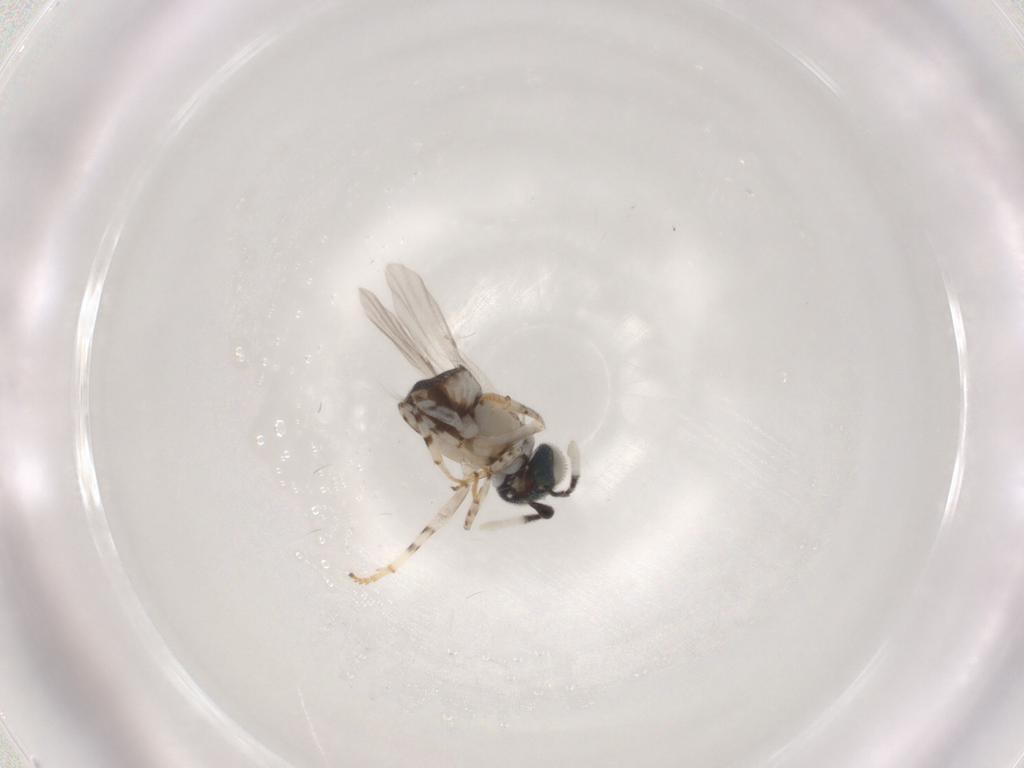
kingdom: Animalia
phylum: Arthropoda
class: Insecta
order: Hymenoptera
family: Braconidae
